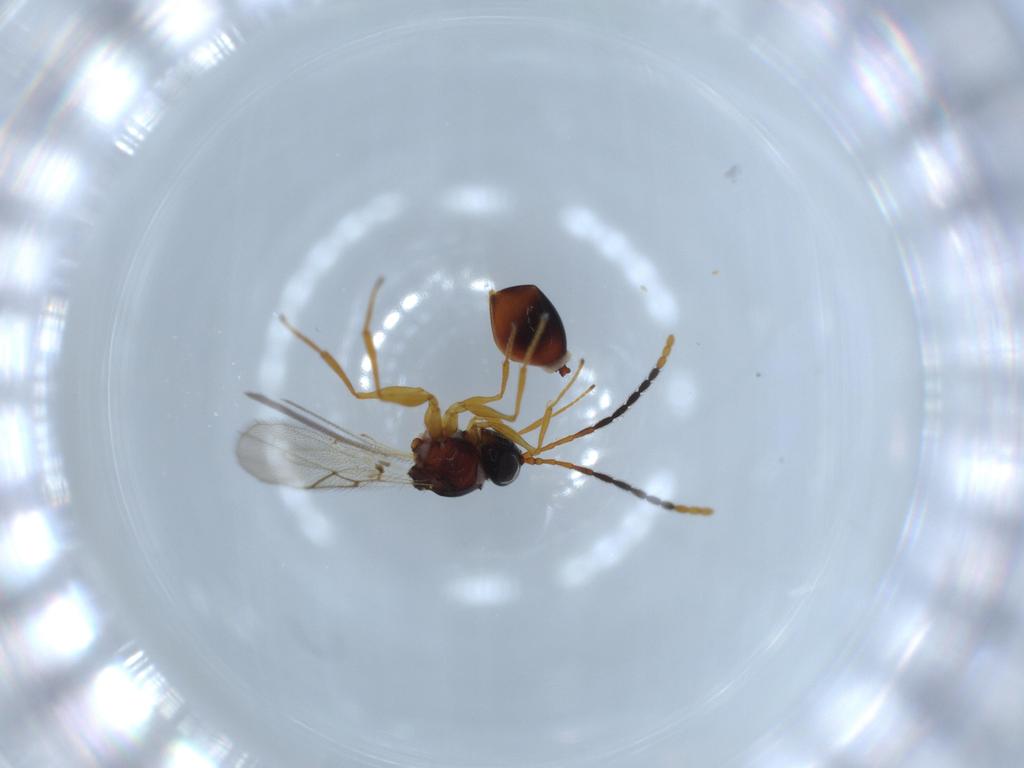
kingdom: Animalia
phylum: Arthropoda
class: Insecta
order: Hymenoptera
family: Figitidae
